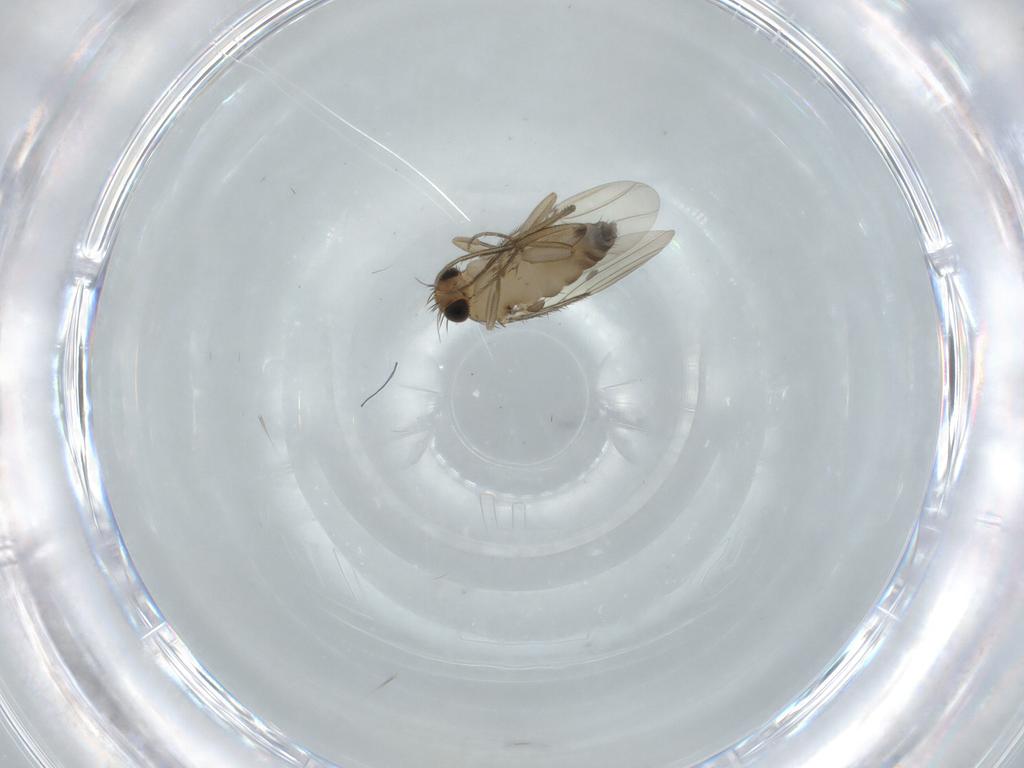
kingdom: Animalia
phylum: Arthropoda
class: Insecta
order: Diptera
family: Phoridae
